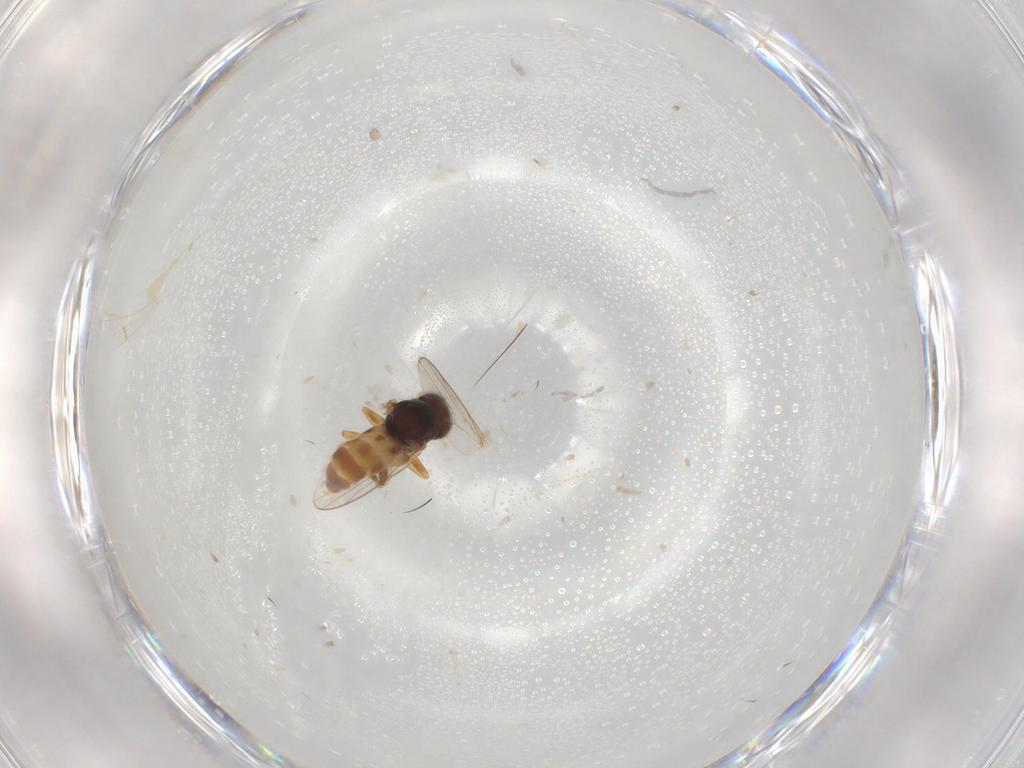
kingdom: Animalia
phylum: Arthropoda
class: Insecta
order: Diptera
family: Chloropidae
